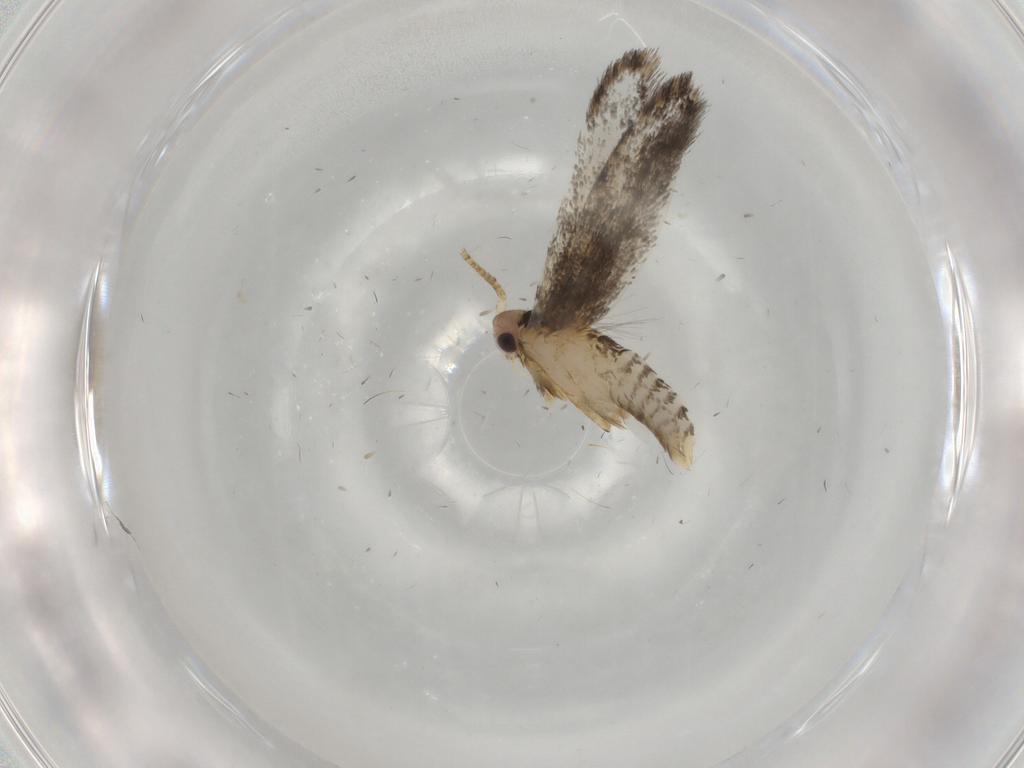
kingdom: Animalia
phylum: Arthropoda
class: Insecta
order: Lepidoptera
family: Tineidae
